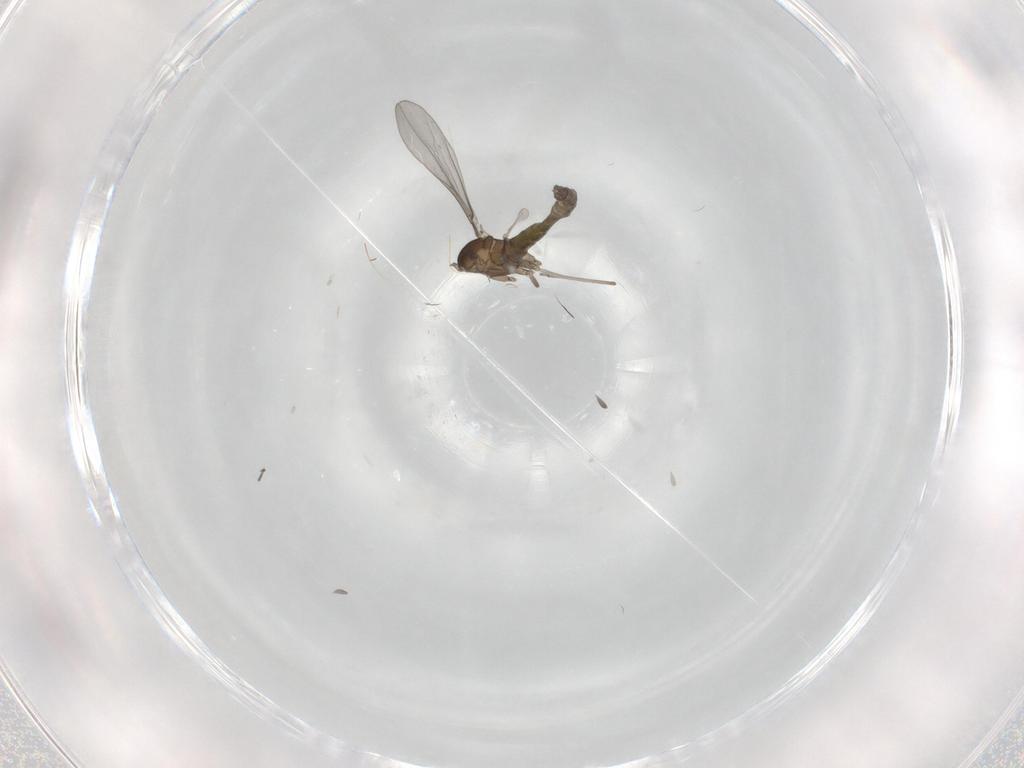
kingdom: Animalia
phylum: Arthropoda
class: Insecta
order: Diptera
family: Cecidomyiidae
